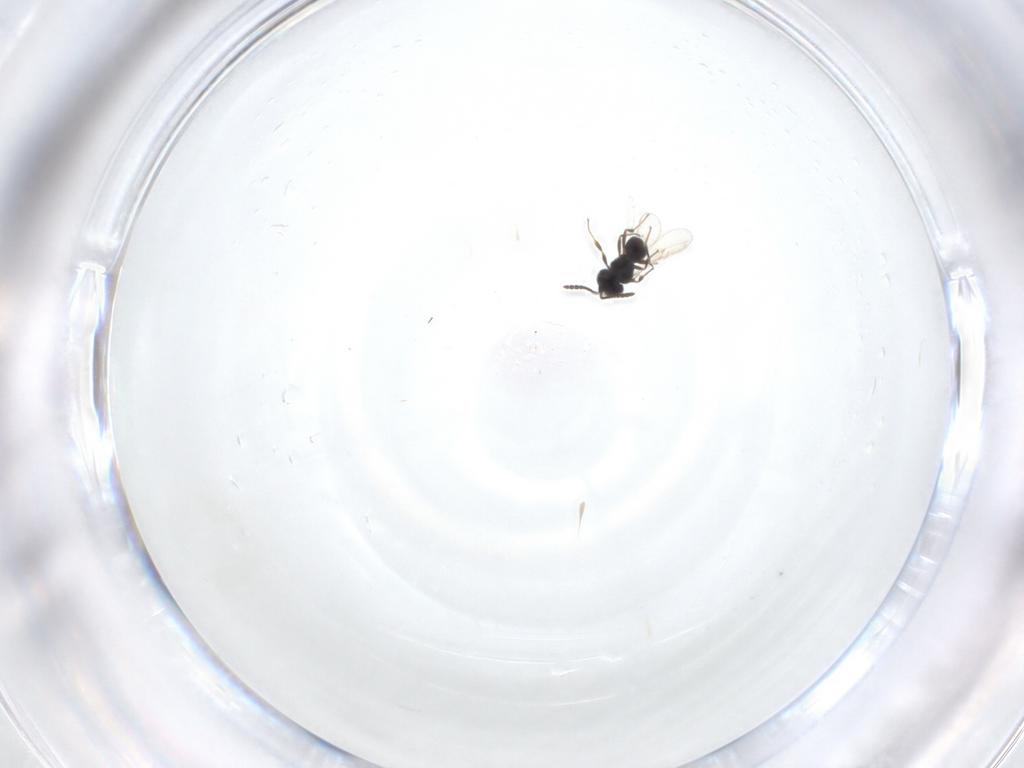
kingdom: Animalia
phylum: Arthropoda
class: Insecta
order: Hymenoptera
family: Scelionidae
